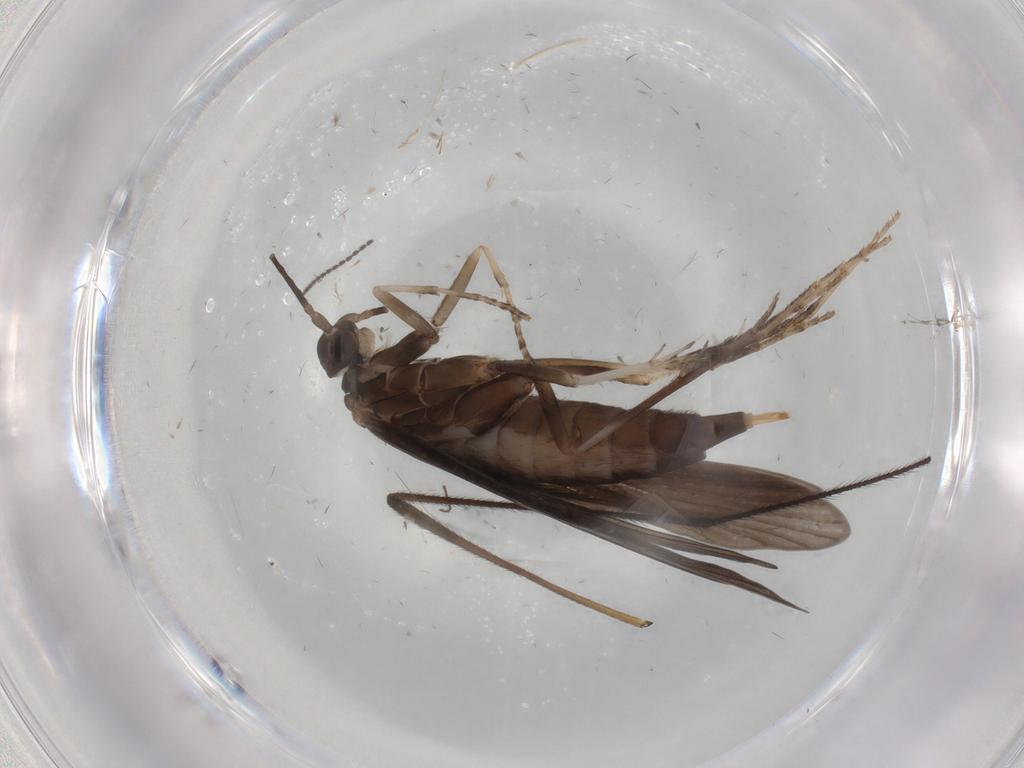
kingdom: Animalia
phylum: Arthropoda
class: Insecta
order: Trichoptera
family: Xiphocentronidae
